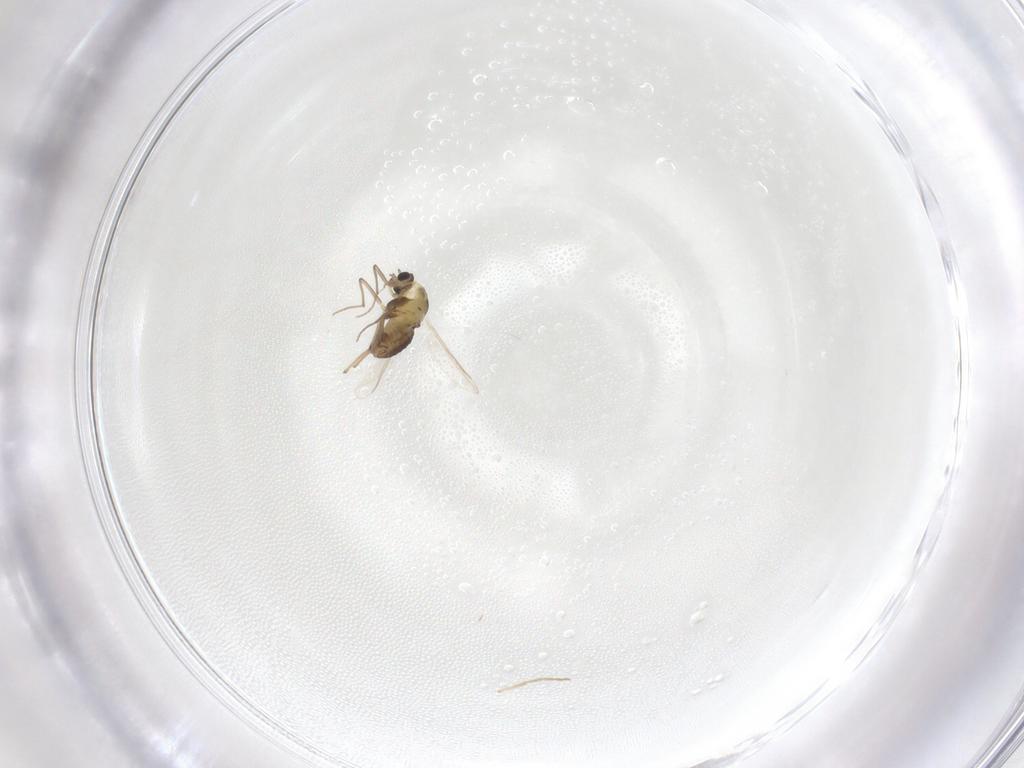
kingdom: Animalia
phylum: Arthropoda
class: Insecta
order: Diptera
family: Chironomidae
